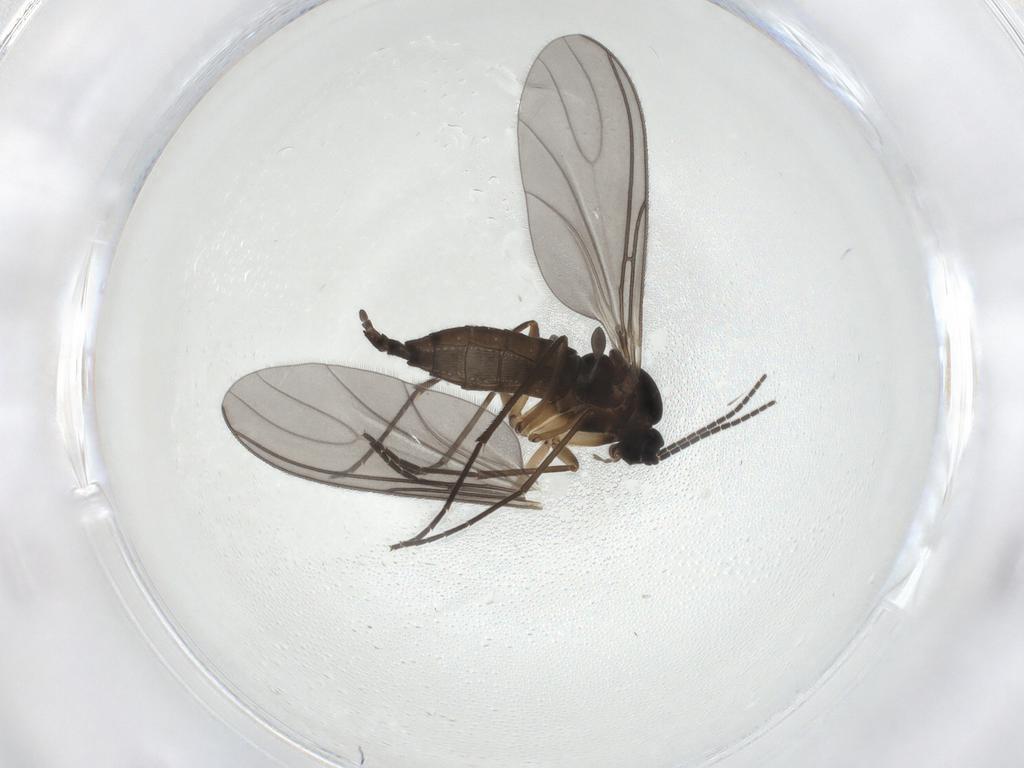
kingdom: Animalia
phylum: Arthropoda
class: Insecta
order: Diptera
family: Sciaridae
